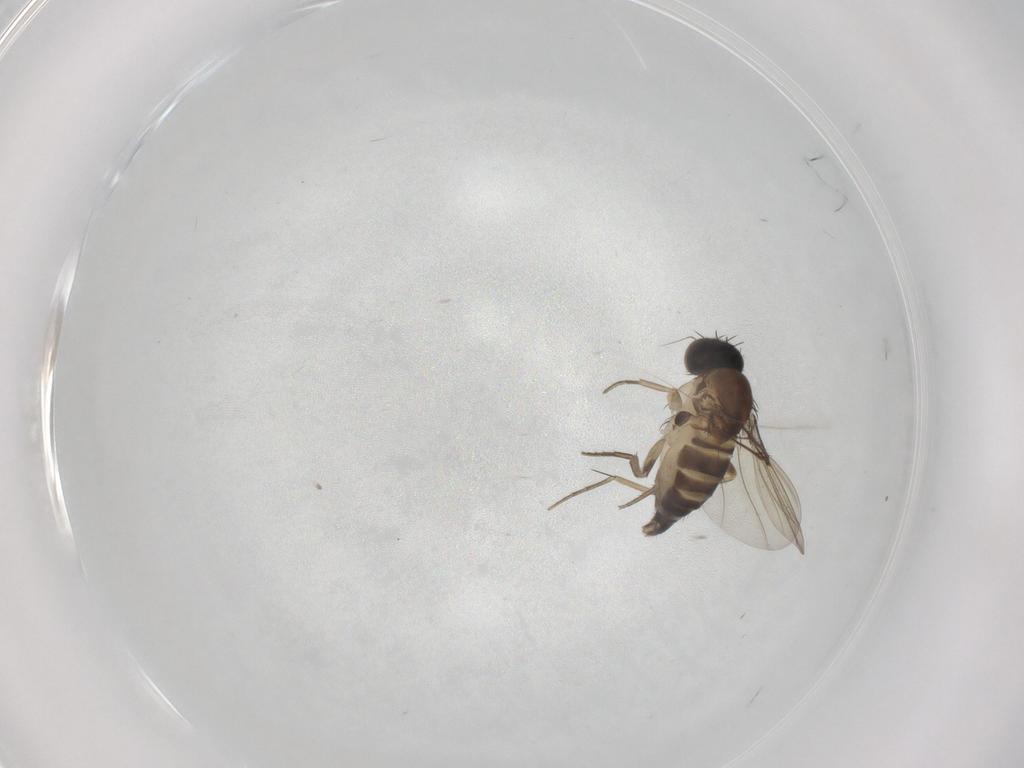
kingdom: Animalia
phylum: Arthropoda
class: Insecta
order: Diptera
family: Phoridae
